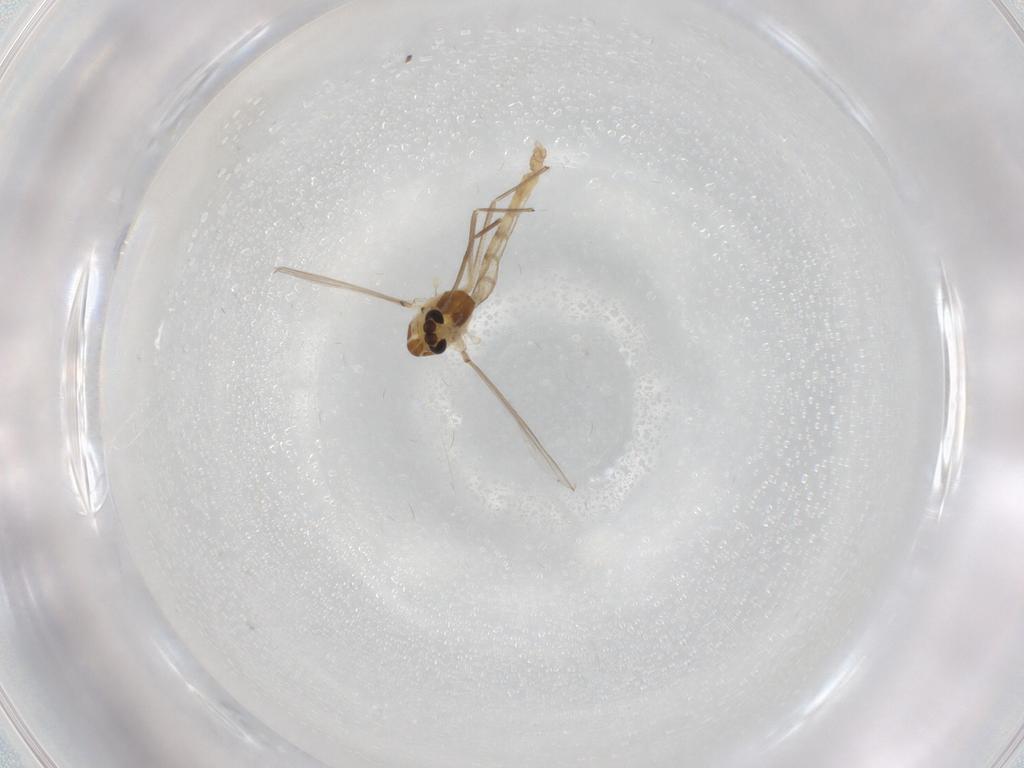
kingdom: Animalia
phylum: Arthropoda
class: Insecta
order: Diptera
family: Chironomidae
